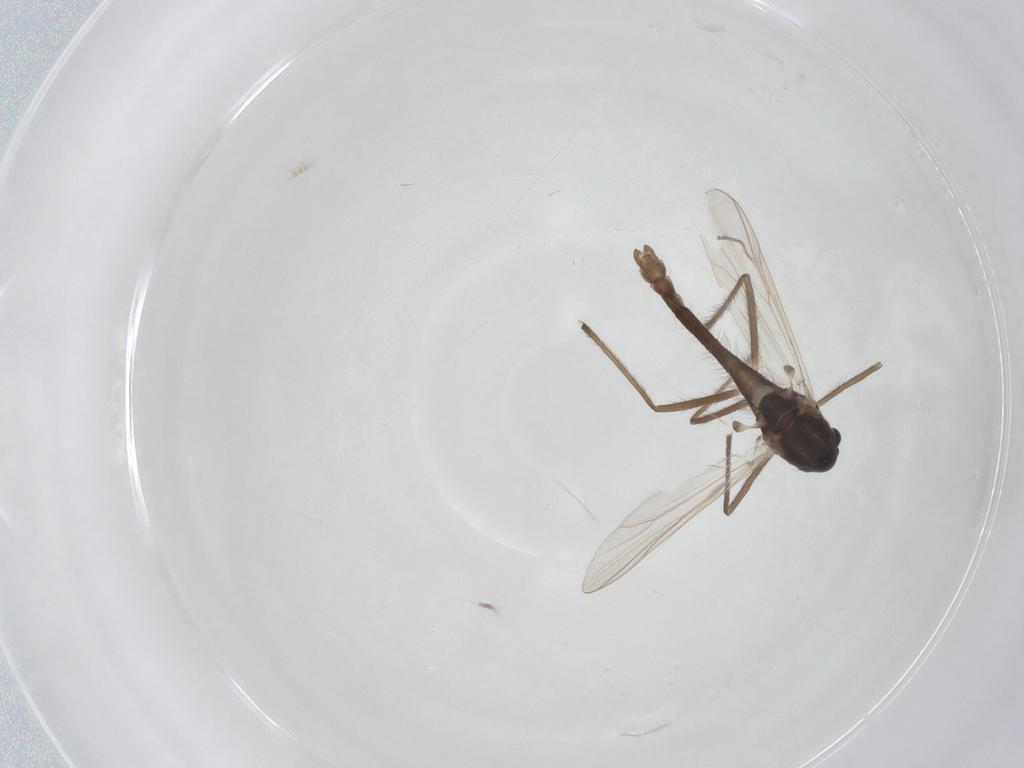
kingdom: Animalia
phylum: Arthropoda
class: Insecta
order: Diptera
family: Chironomidae
